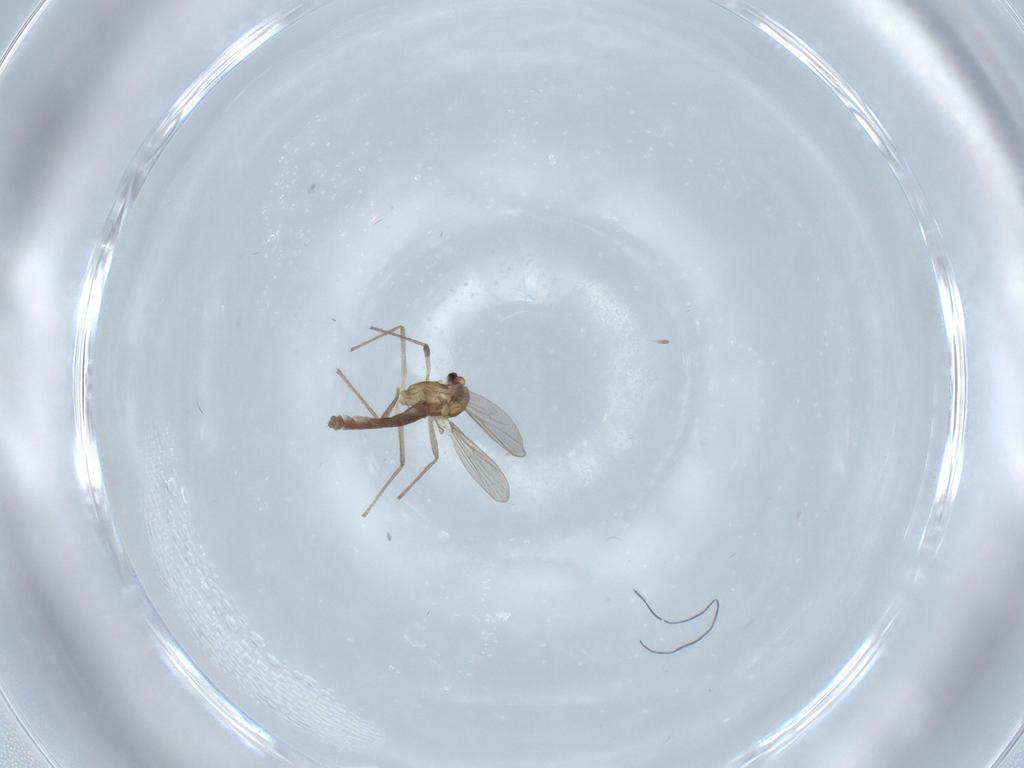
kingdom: Animalia
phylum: Arthropoda
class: Insecta
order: Diptera
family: Chironomidae
